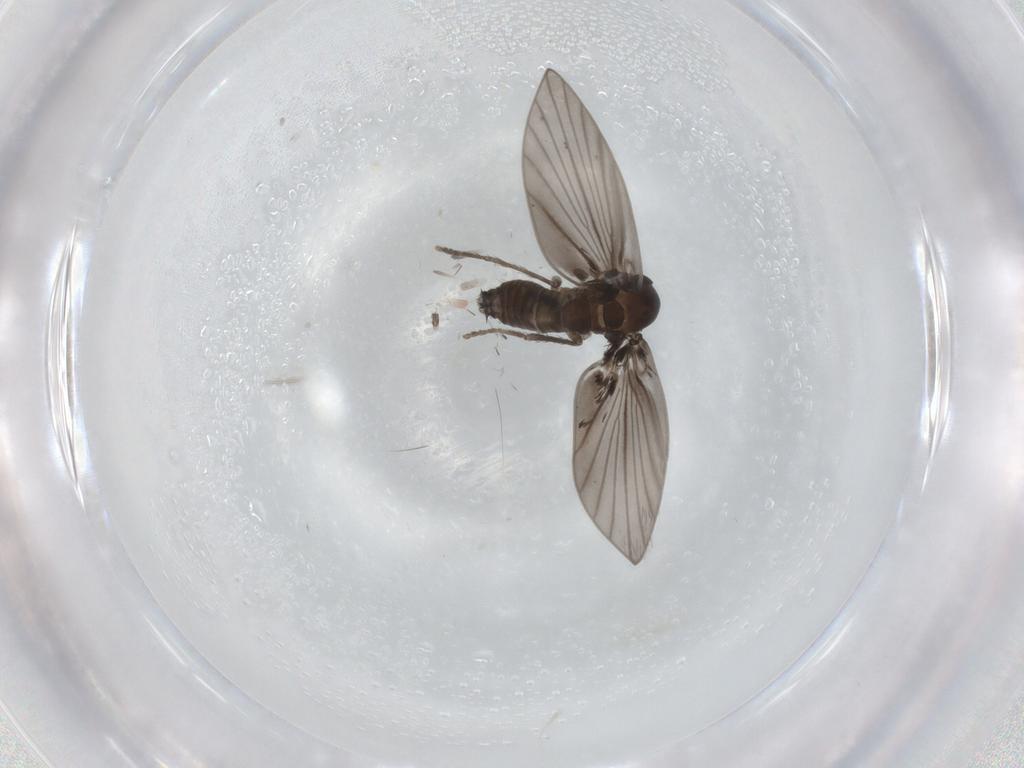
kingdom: Animalia
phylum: Arthropoda
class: Insecta
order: Diptera
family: Psychodidae
